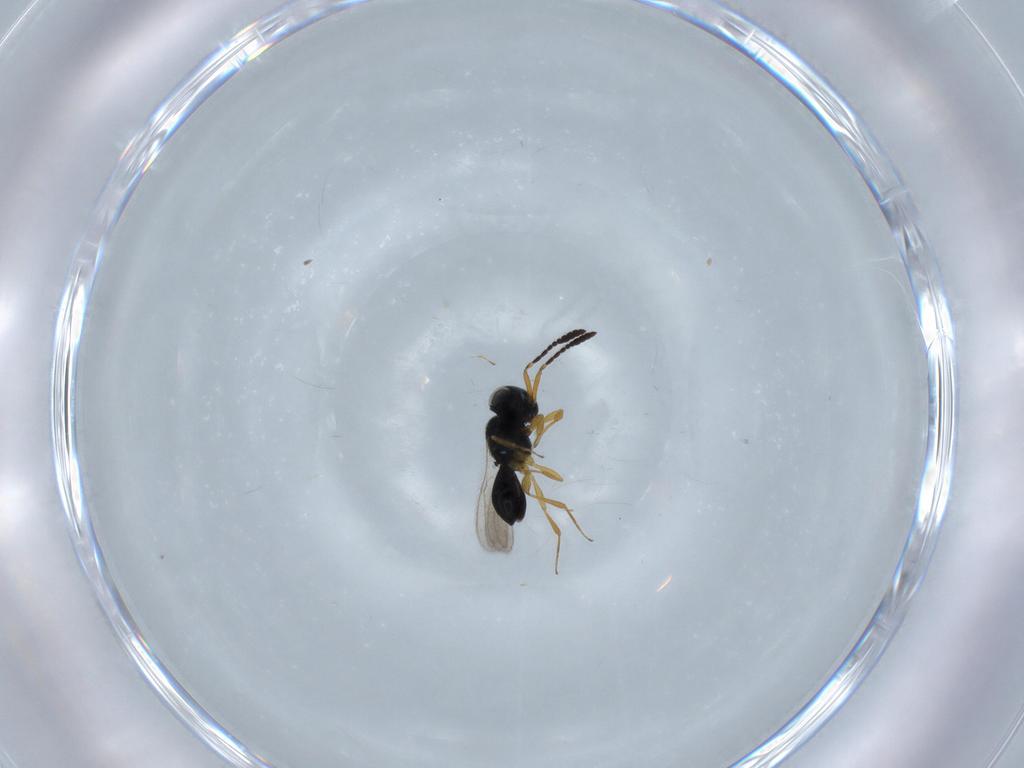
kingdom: Animalia
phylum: Arthropoda
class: Insecta
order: Hymenoptera
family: Scelionidae
